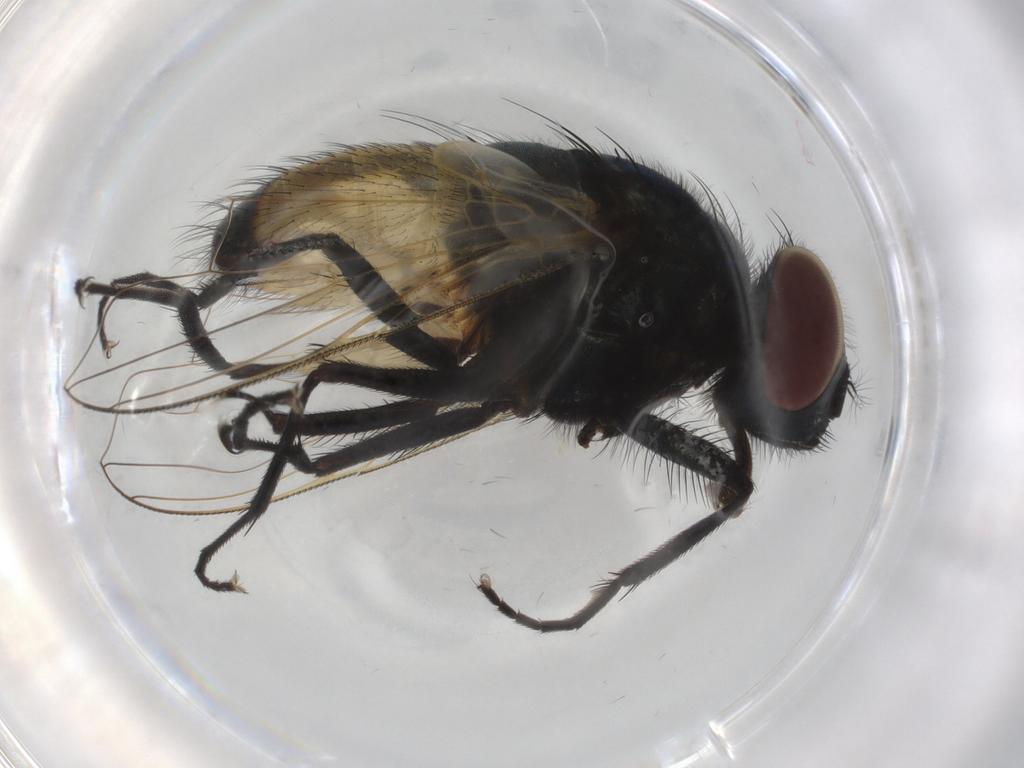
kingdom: Animalia
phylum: Arthropoda
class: Insecta
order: Diptera
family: Muscidae
